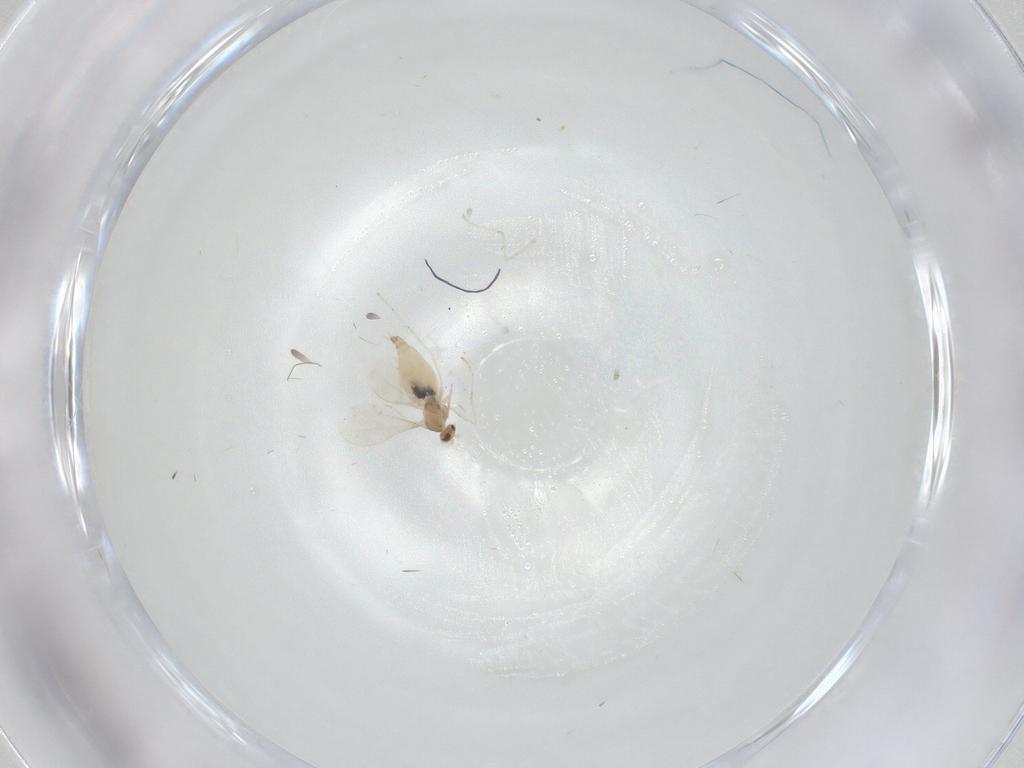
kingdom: Animalia
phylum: Arthropoda
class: Insecta
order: Diptera
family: Cecidomyiidae
